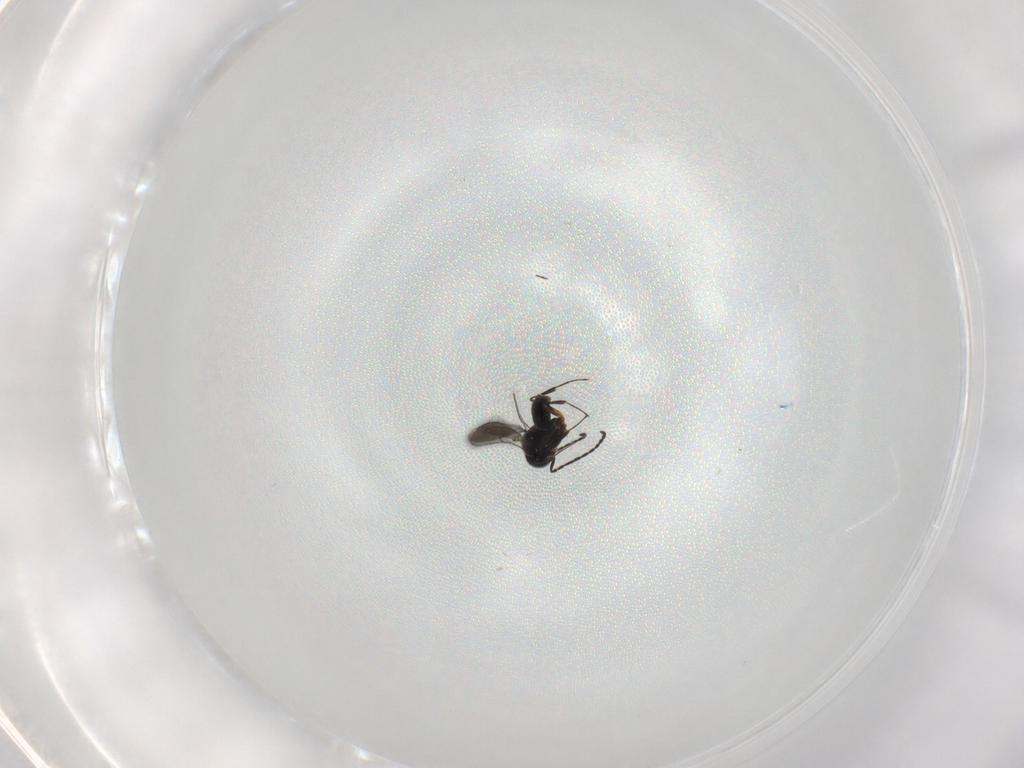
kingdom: Animalia
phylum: Arthropoda
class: Insecta
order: Hymenoptera
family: Scelionidae
